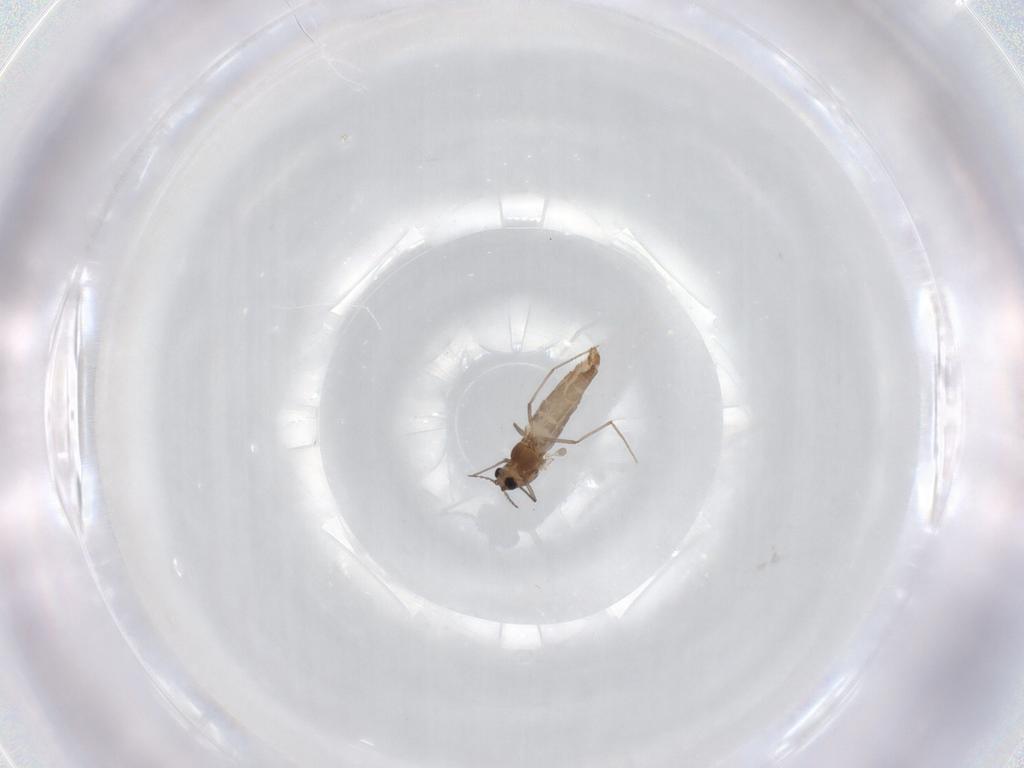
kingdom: Animalia
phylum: Arthropoda
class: Insecta
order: Diptera
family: Chironomidae
